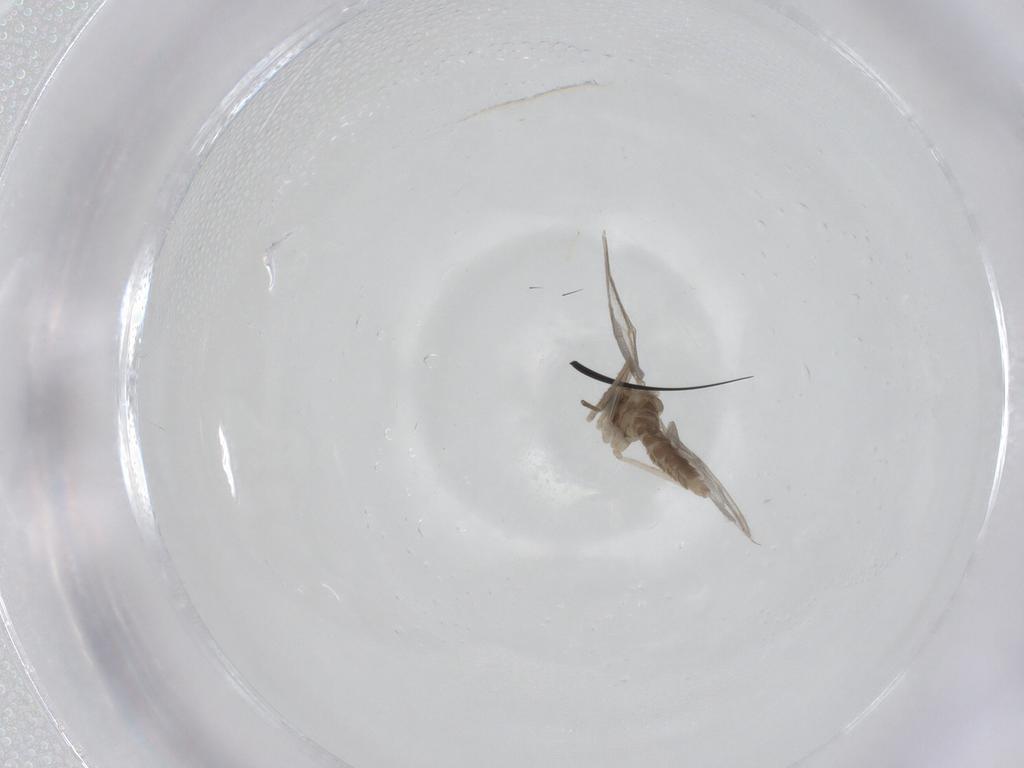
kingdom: Animalia
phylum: Arthropoda
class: Insecta
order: Diptera
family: Cecidomyiidae
